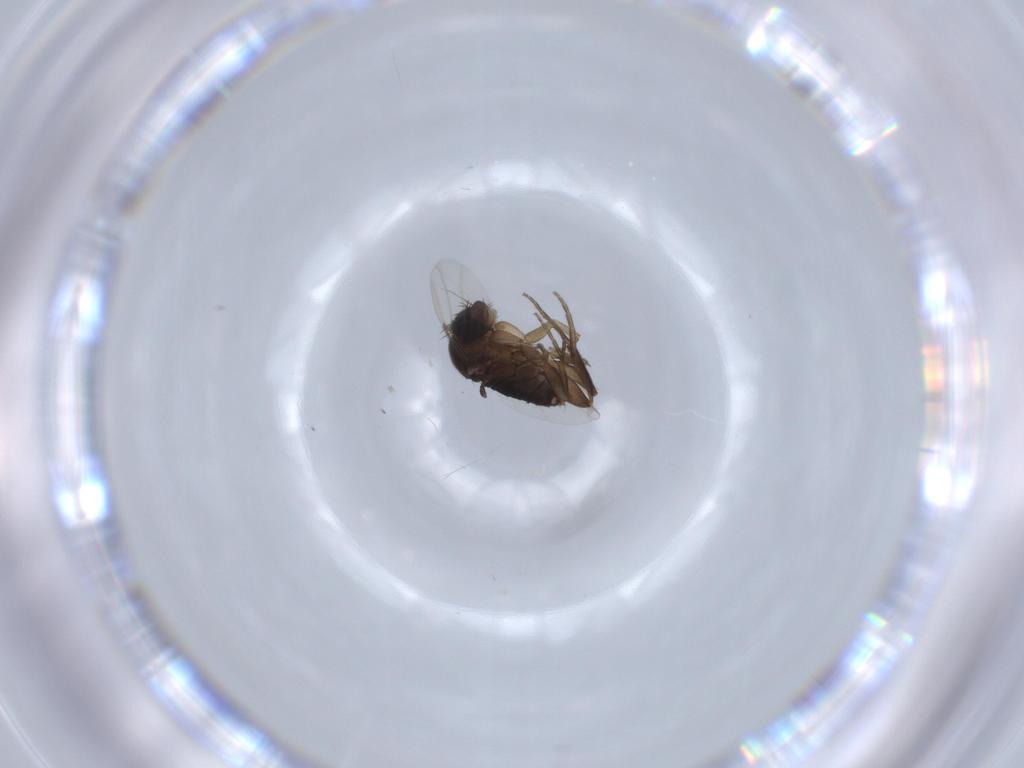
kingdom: Animalia
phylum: Arthropoda
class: Insecta
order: Diptera
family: Phoridae
